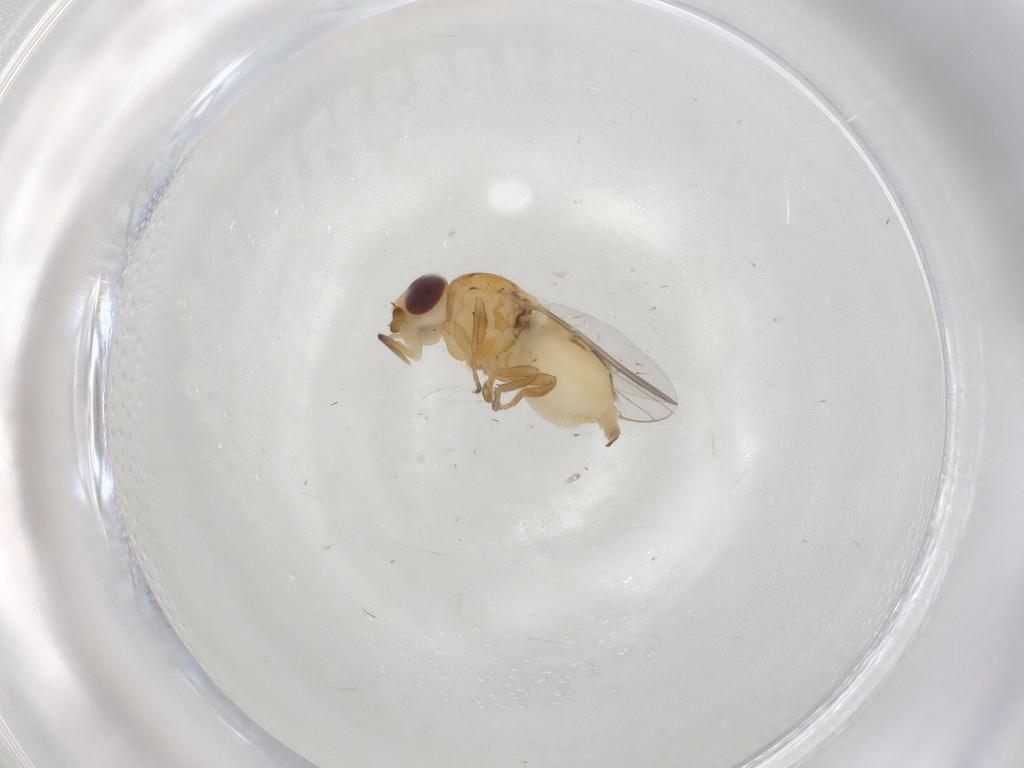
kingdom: Animalia
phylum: Arthropoda
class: Insecta
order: Diptera
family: Chloropidae
